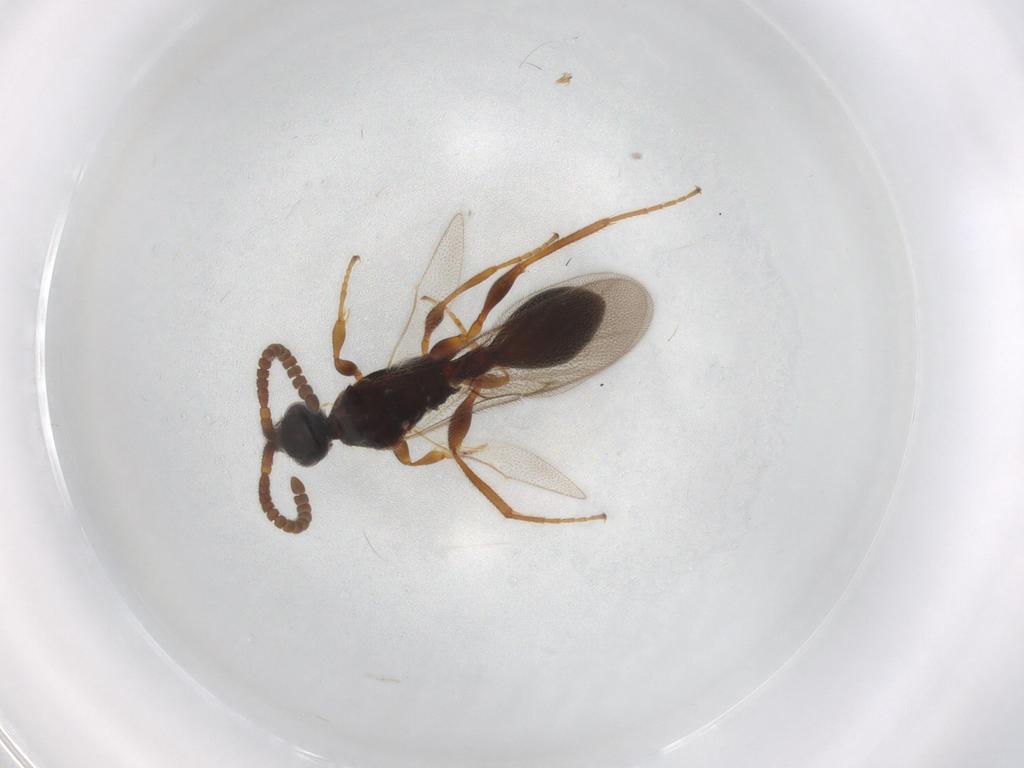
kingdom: Animalia
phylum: Arthropoda
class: Insecta
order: Hymenoptera
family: Diapriidae
